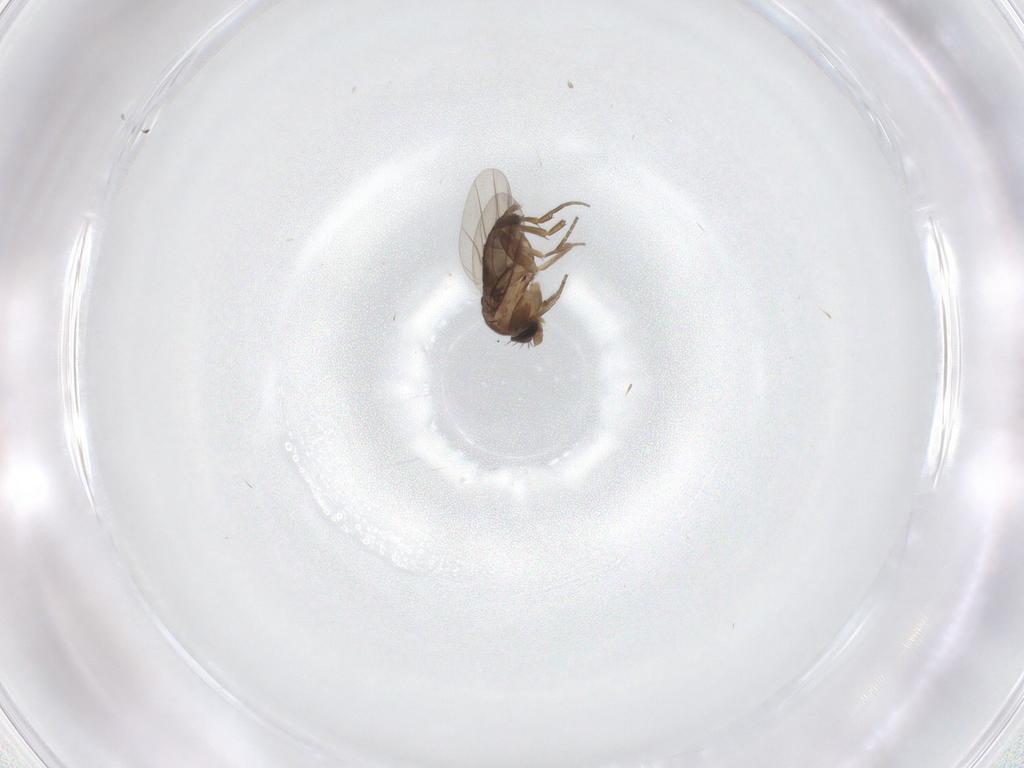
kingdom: Animalia
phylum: Arthropoda
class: Insecta
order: Diptera
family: Phoridae
